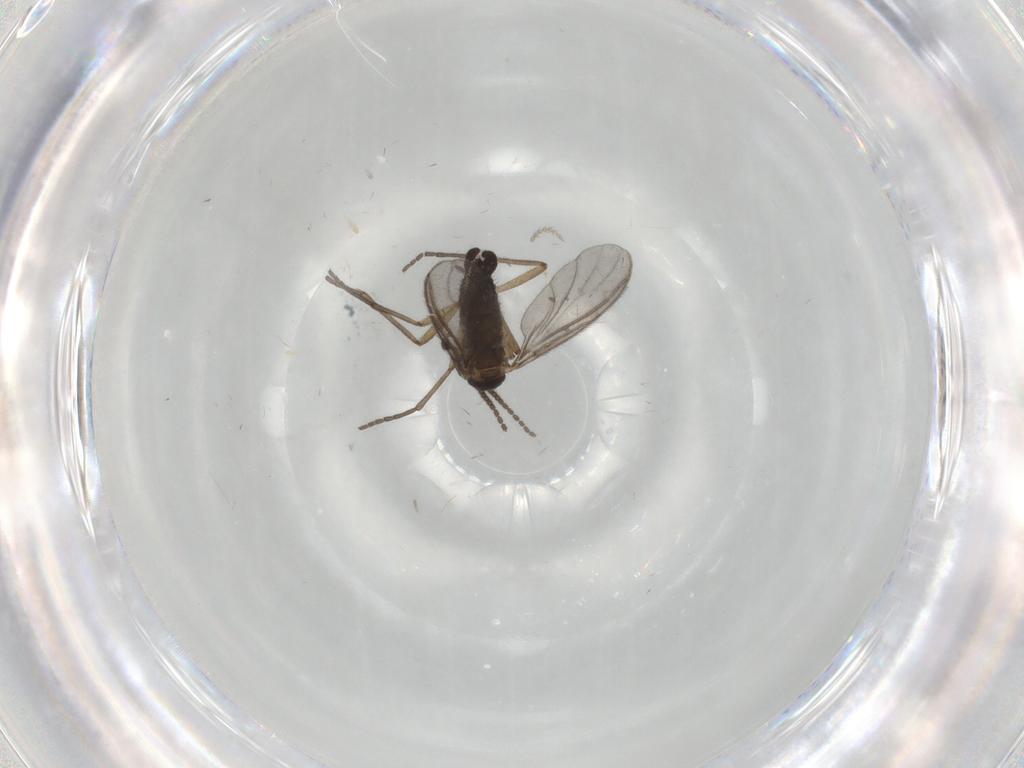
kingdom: Animalia
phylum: Arthropoda
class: Insecta
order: Diptera
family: Sciaridae
